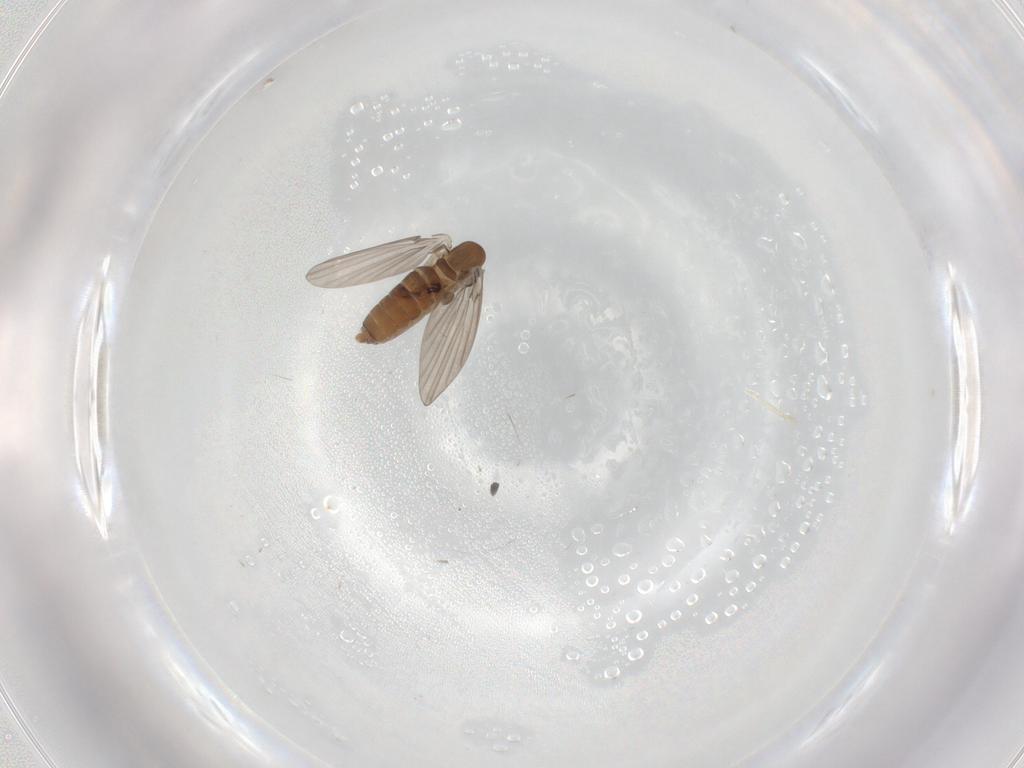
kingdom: Animalia
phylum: Arthropoda
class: Insecta
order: Diptera
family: Cecidomyiidae
